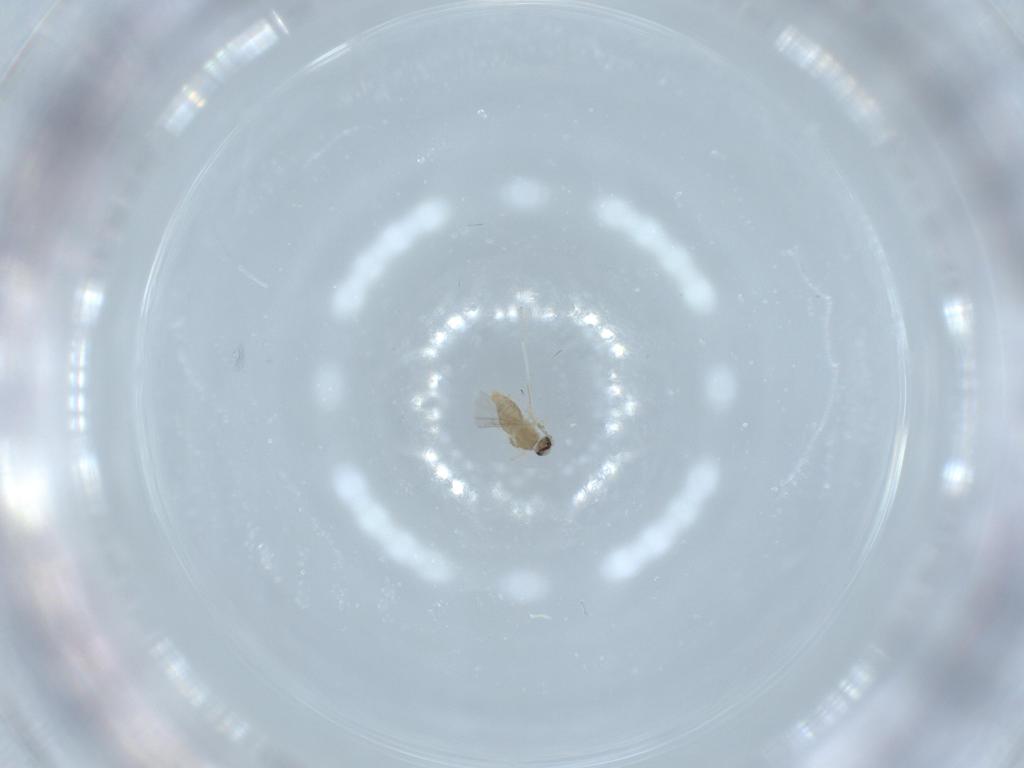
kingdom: Animalia
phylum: Arthropoda
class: Insecta
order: Diptera
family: Cecidomyiidae
